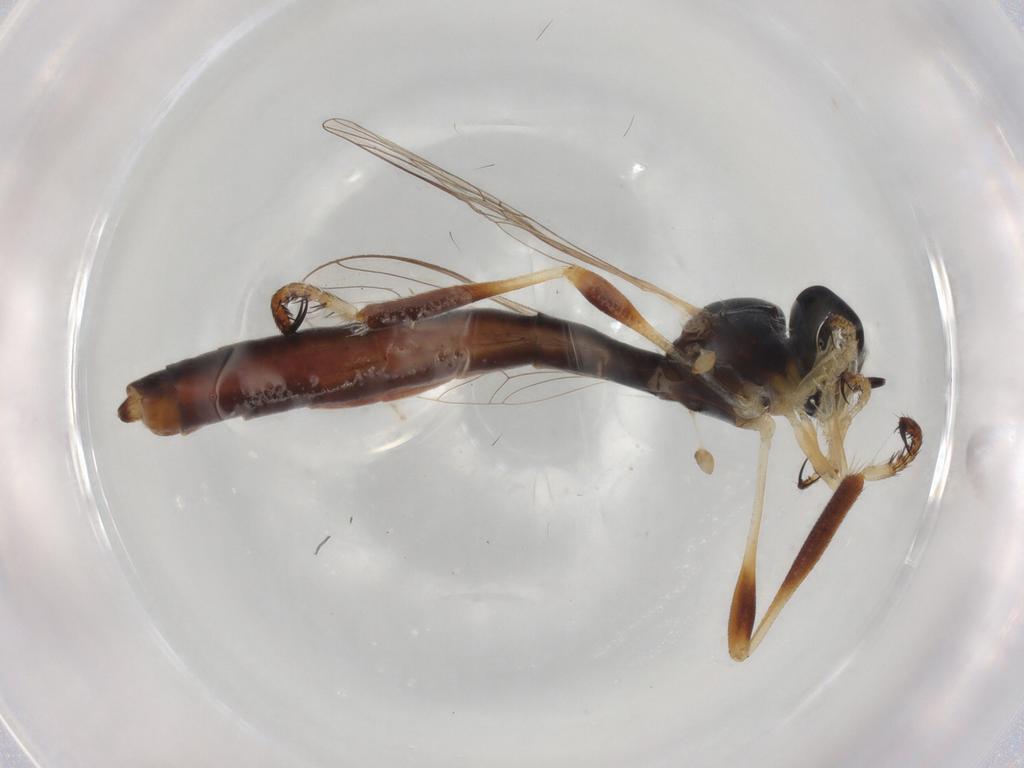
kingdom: Animalia
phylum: Arthropoda
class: Insecta
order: Diptera
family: Asilidae
